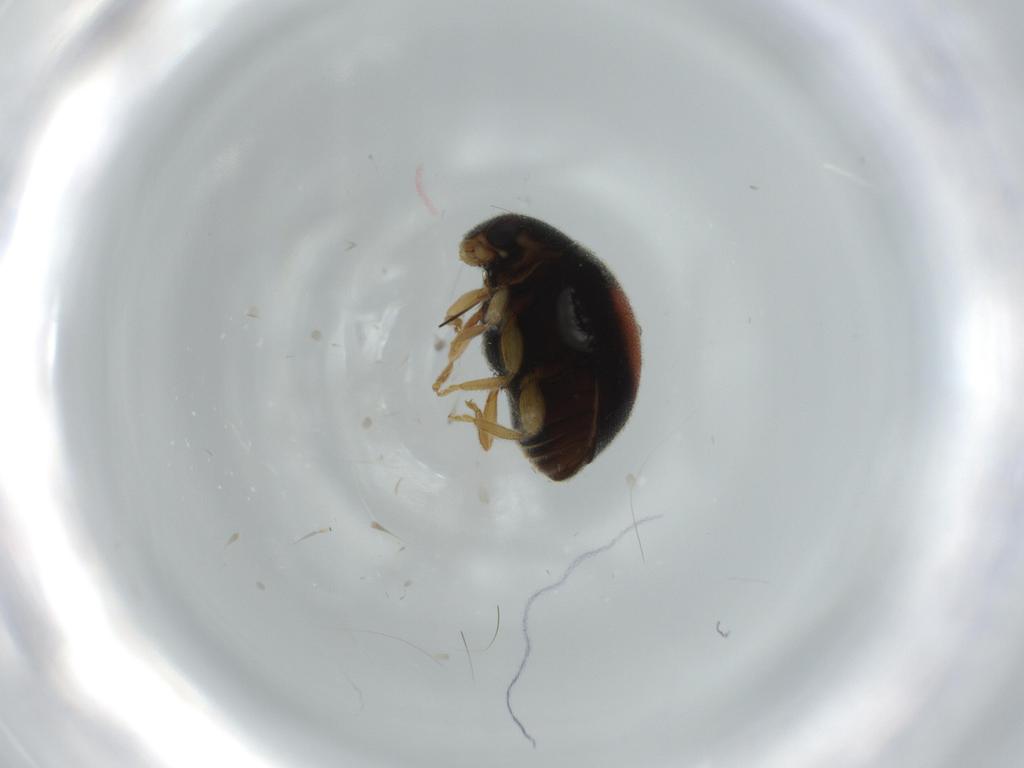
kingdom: Animalia
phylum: Arthropoda
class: Insecta
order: Coleoptera
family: Coccinellidae
